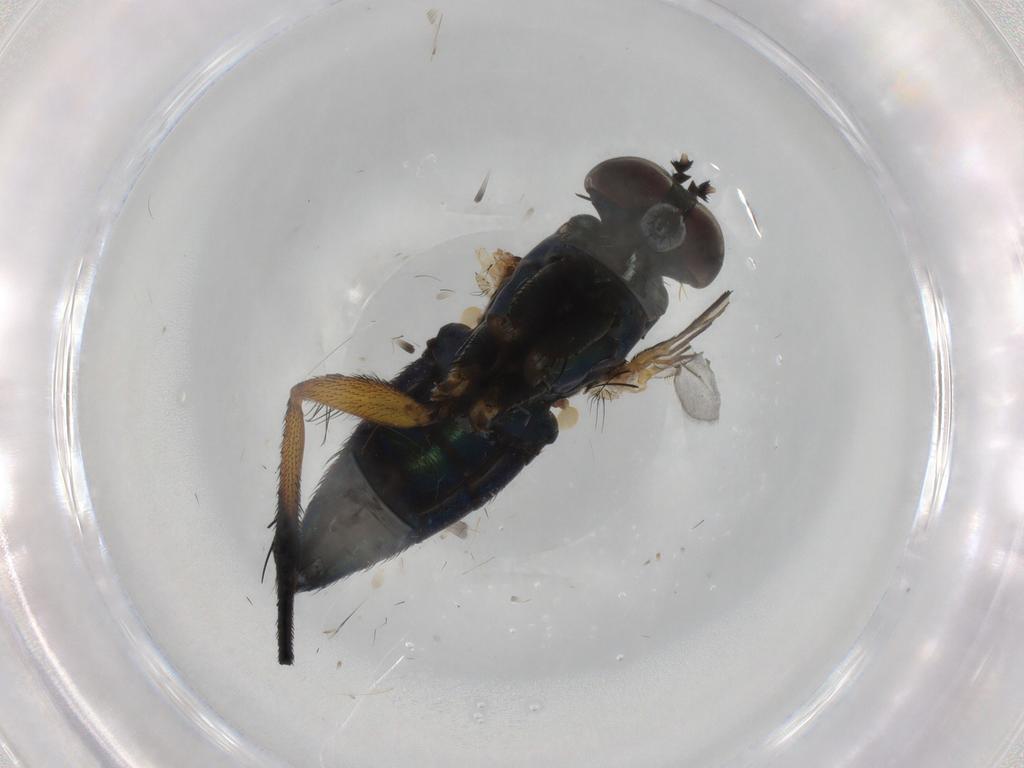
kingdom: Animalia
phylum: Arthropoda
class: Insecta
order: Diptera
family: Dolichopodidae
